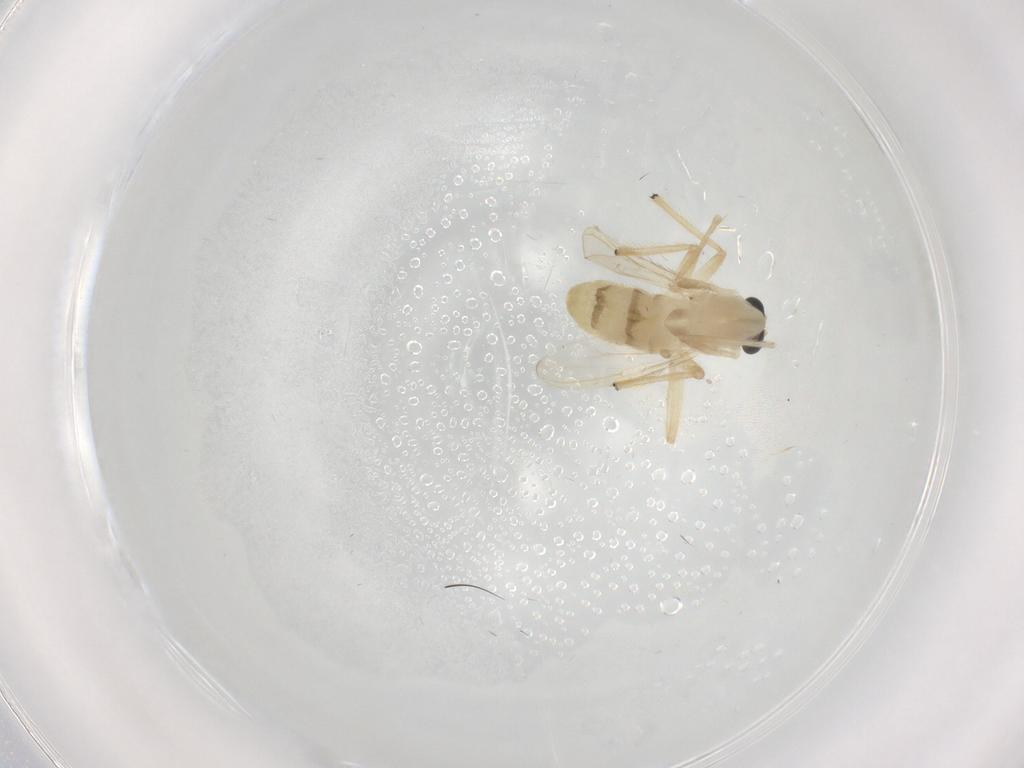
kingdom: Animalia
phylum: Arthropoda
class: Insecta
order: Diptera
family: Chironomidae
